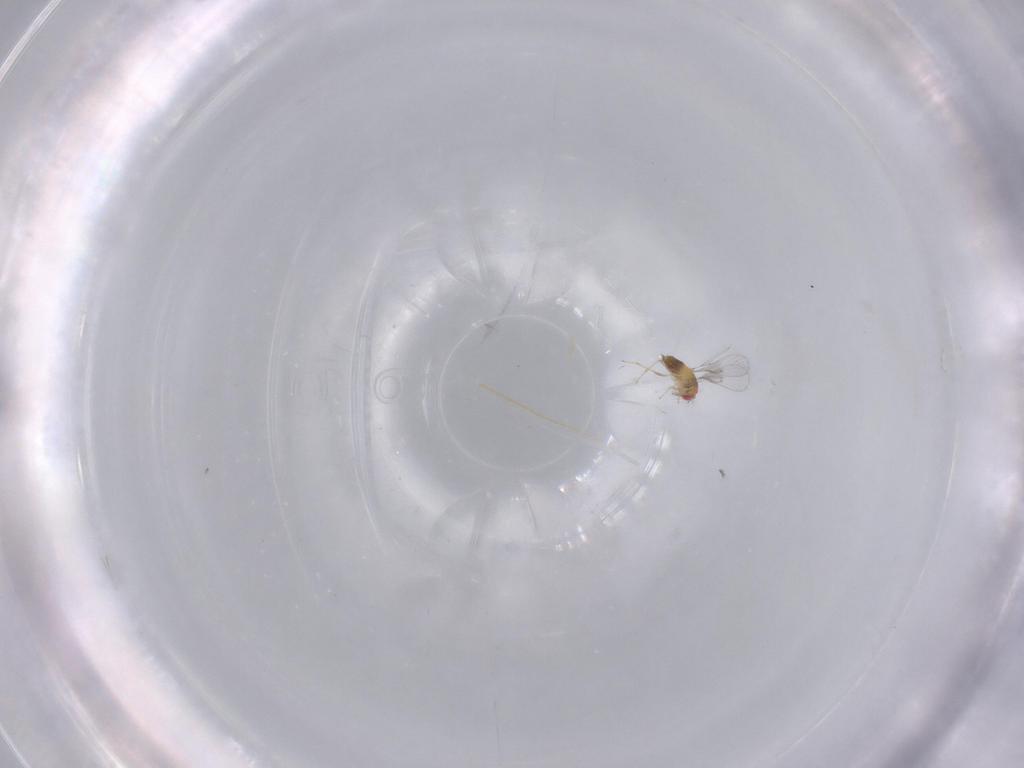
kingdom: Animalia
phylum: Arthropoda
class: Insecta
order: Hymenoptera
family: Trichogrammatidae
